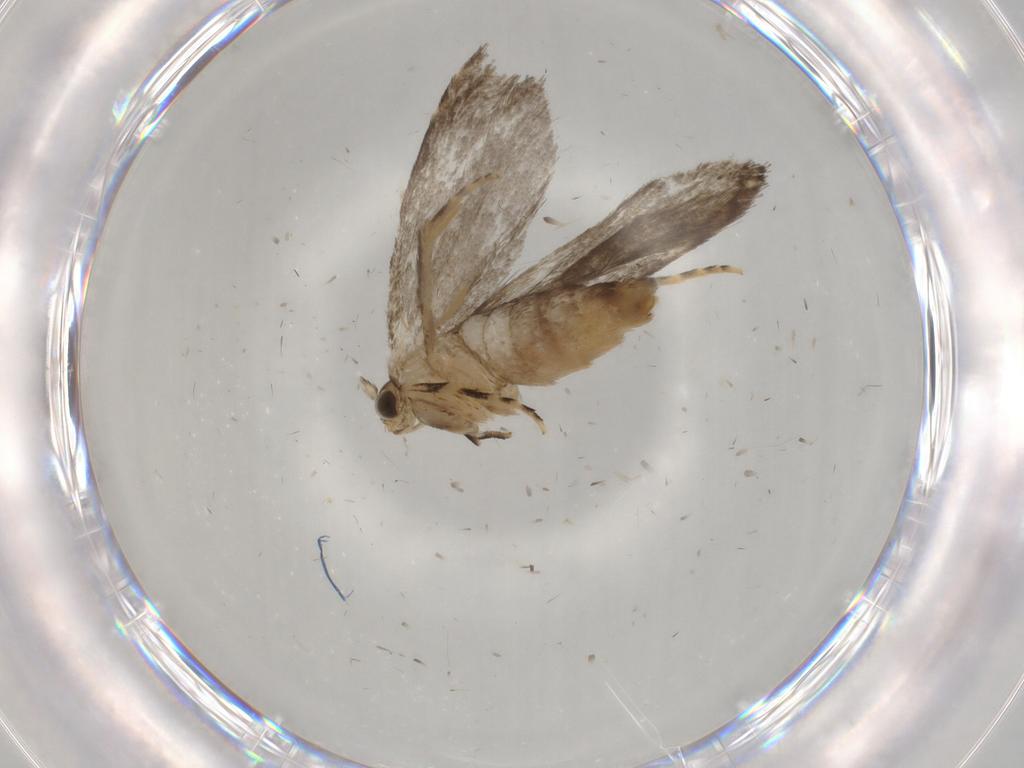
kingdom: Animalia
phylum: Arthropoda
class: Insecta
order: Lepidoptera
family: Tineidae
